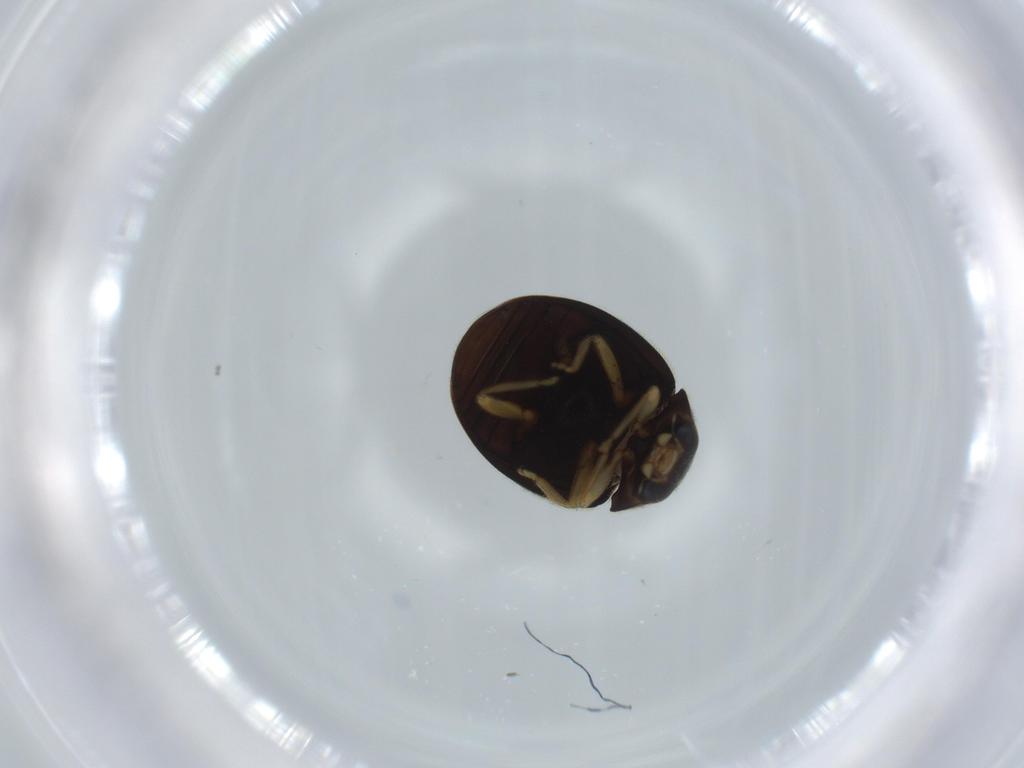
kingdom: Animalia
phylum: Arthropoda
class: Insecta
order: Coleoptera
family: Coccinellidae
